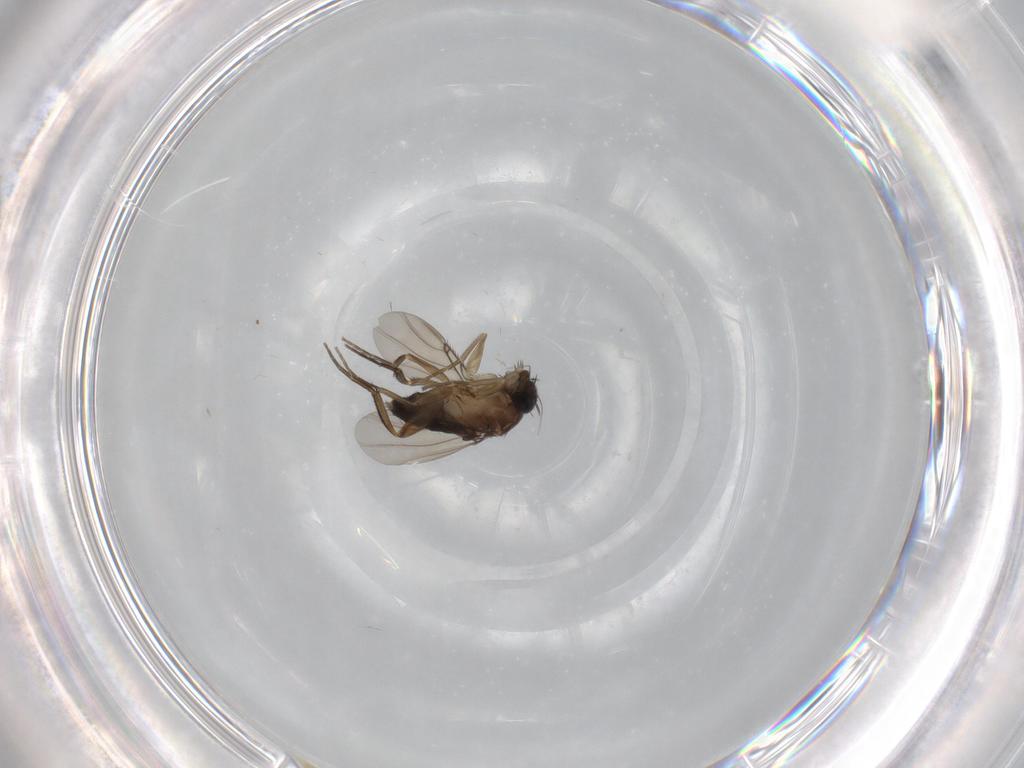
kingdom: Animalia
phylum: Arthropoda
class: Insecta
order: Diptera
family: Phoridae
